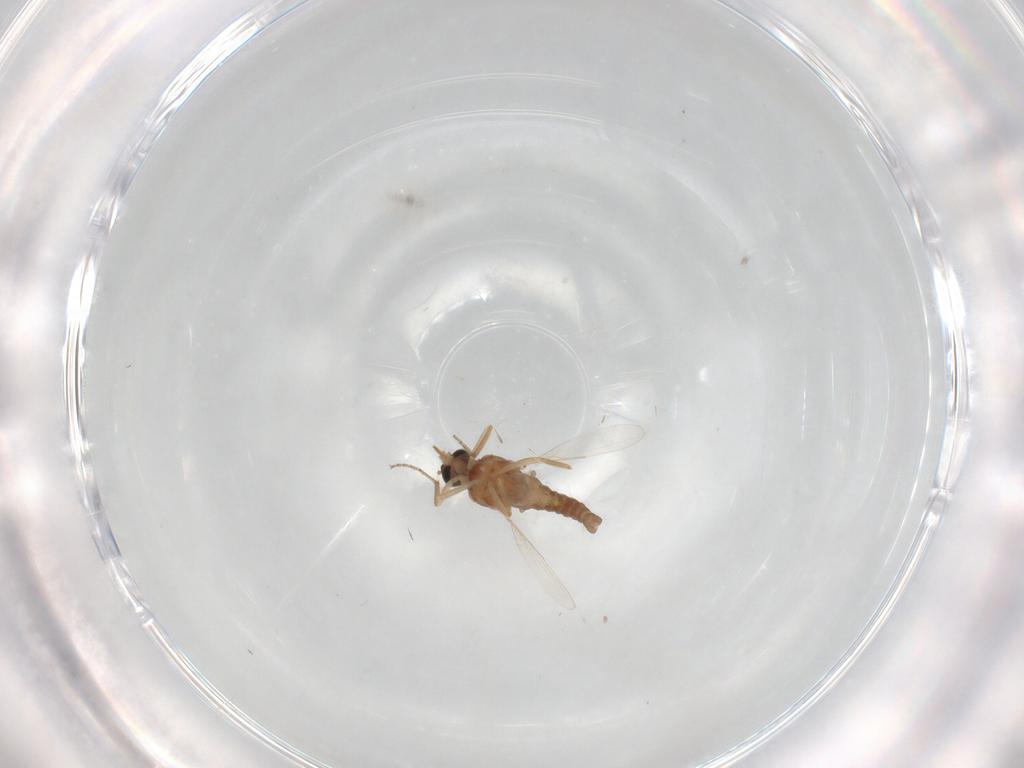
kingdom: Animalia
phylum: Arthropoda
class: Insecta
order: Diptera
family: Ceratopogonidae
